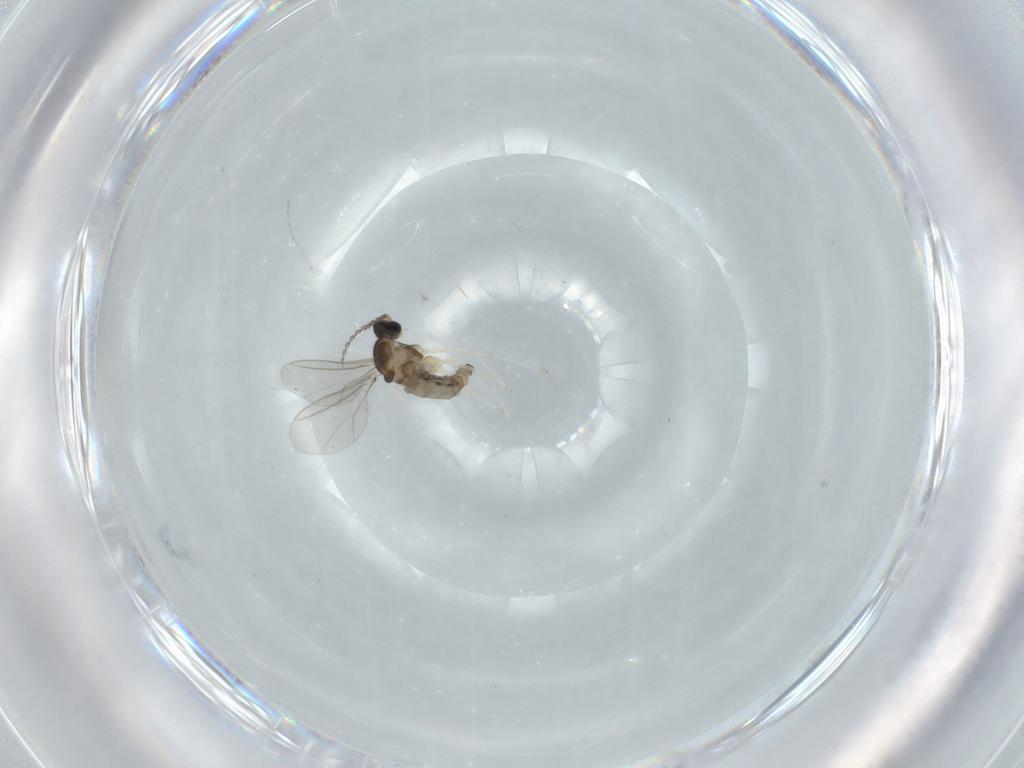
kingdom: Animalia
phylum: Arthropoda
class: Insecta
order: Diptera
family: Cecidomyiidae
